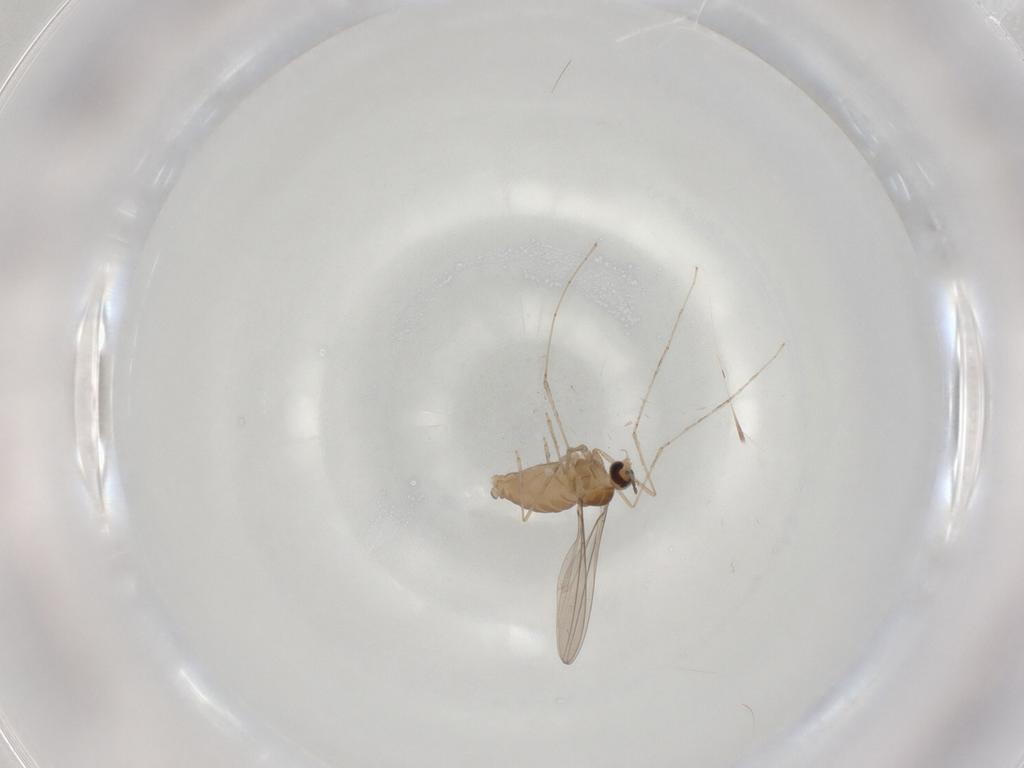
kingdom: Animalia
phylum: Arthropoda
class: Insecta
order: Diptera
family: Cecidomyiidae
